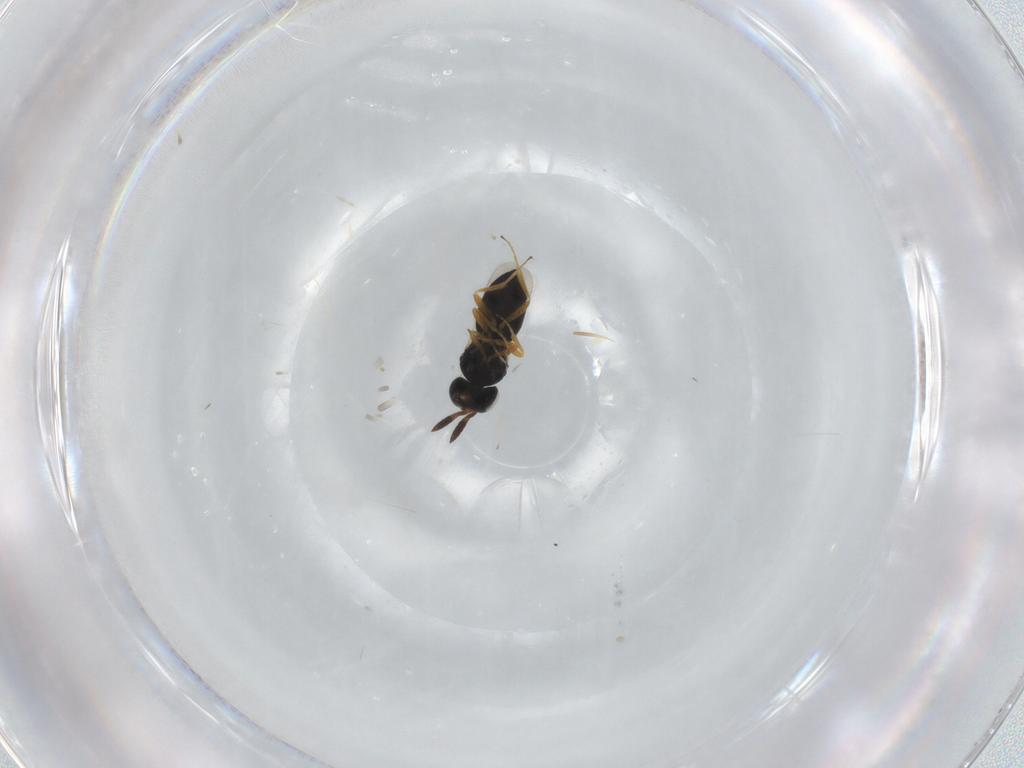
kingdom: Animalia
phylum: Arthropoda
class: Insecta
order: Hymenoptera
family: Scelionidae
